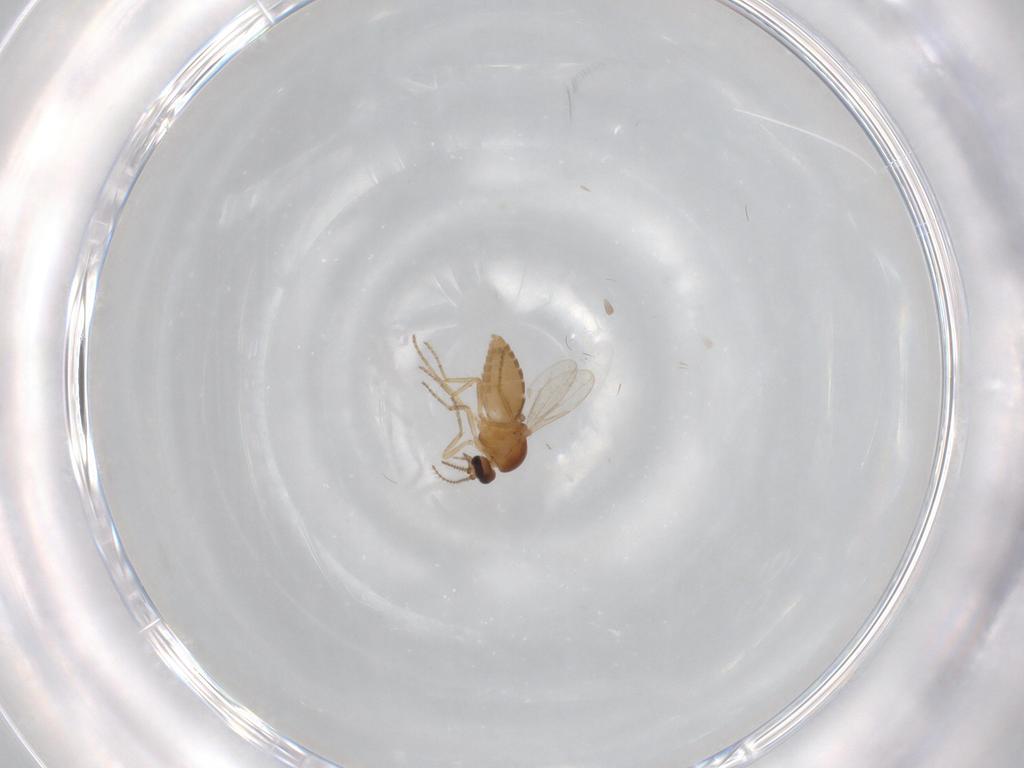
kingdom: Animalia
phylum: Arthropoda
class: Insecta
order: Diptera
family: Ceratopogonidae
